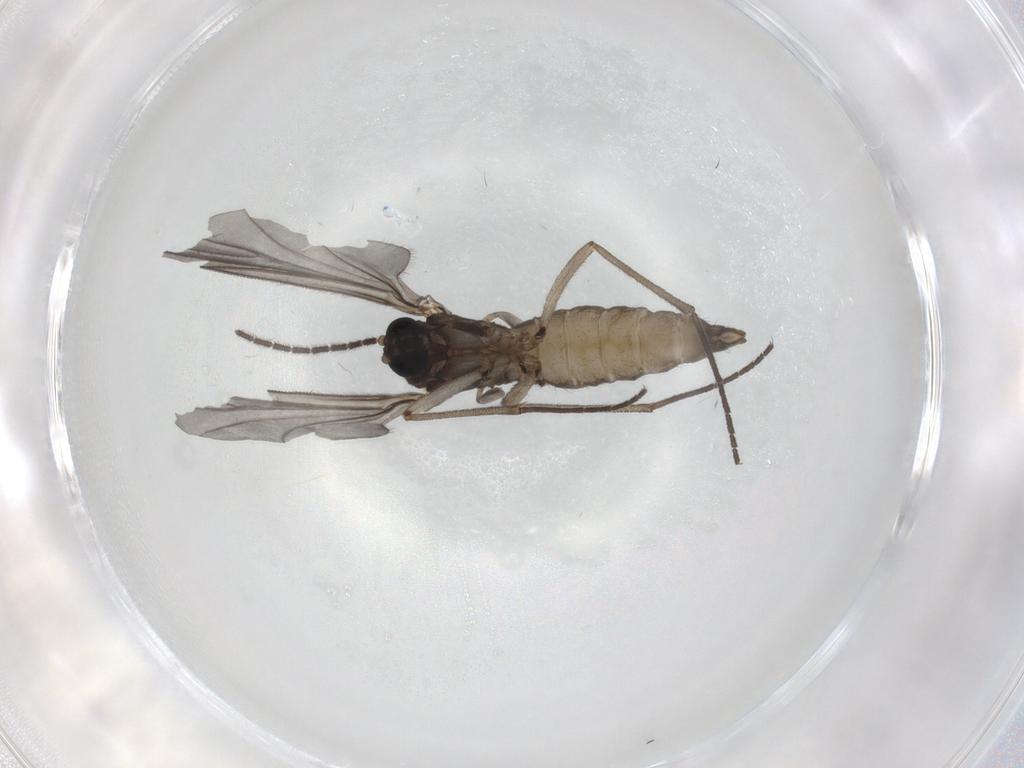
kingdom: Animalia
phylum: Arthropoda
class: Insecta
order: Diptera
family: Sciaridae
